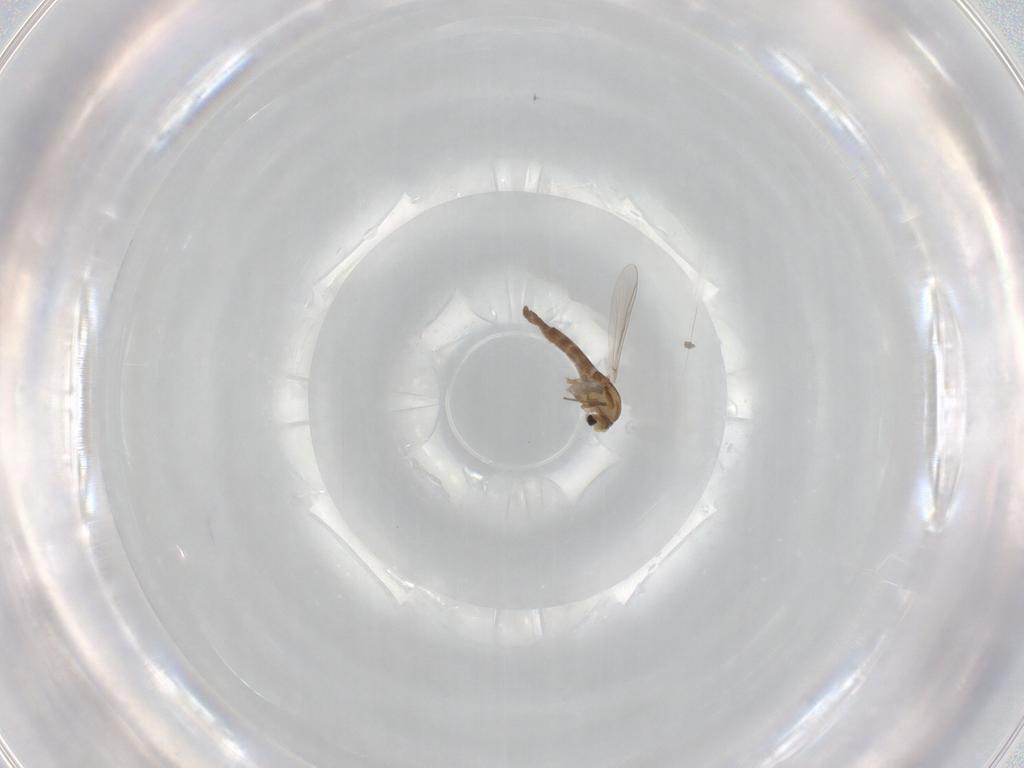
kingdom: Animalia
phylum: Arthropoda
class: Insecta
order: Diptera
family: Chironomidae
